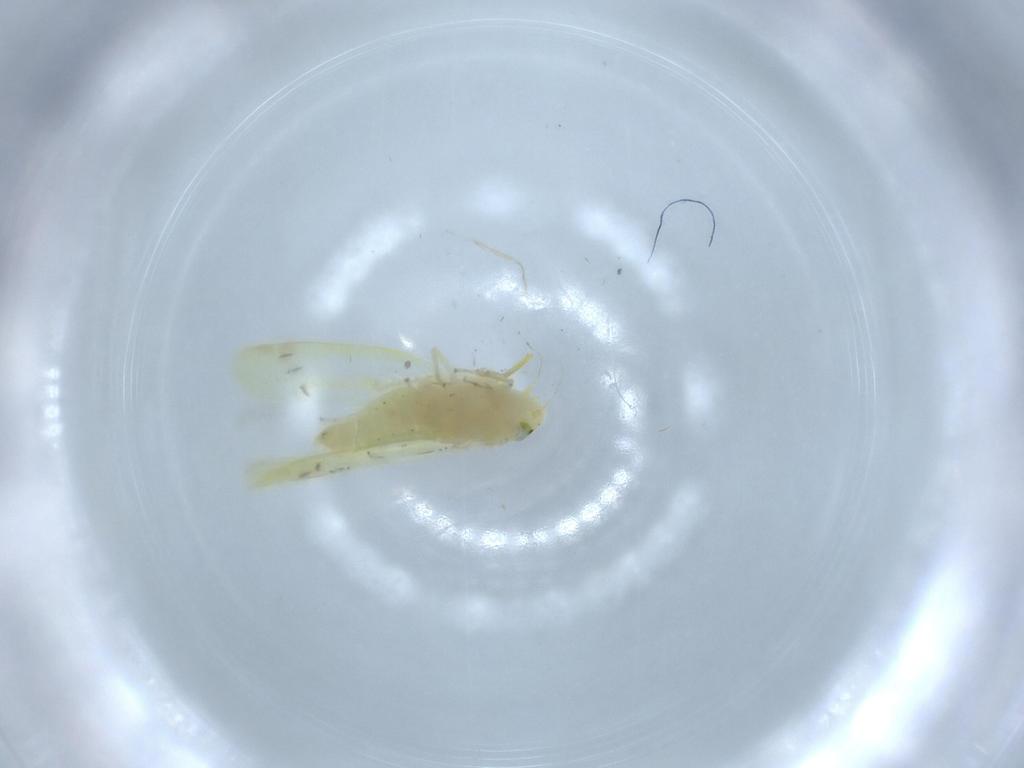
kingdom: Animalia
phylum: Arthropoda
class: Insecta
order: Hemiptera
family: Cicadellidae
